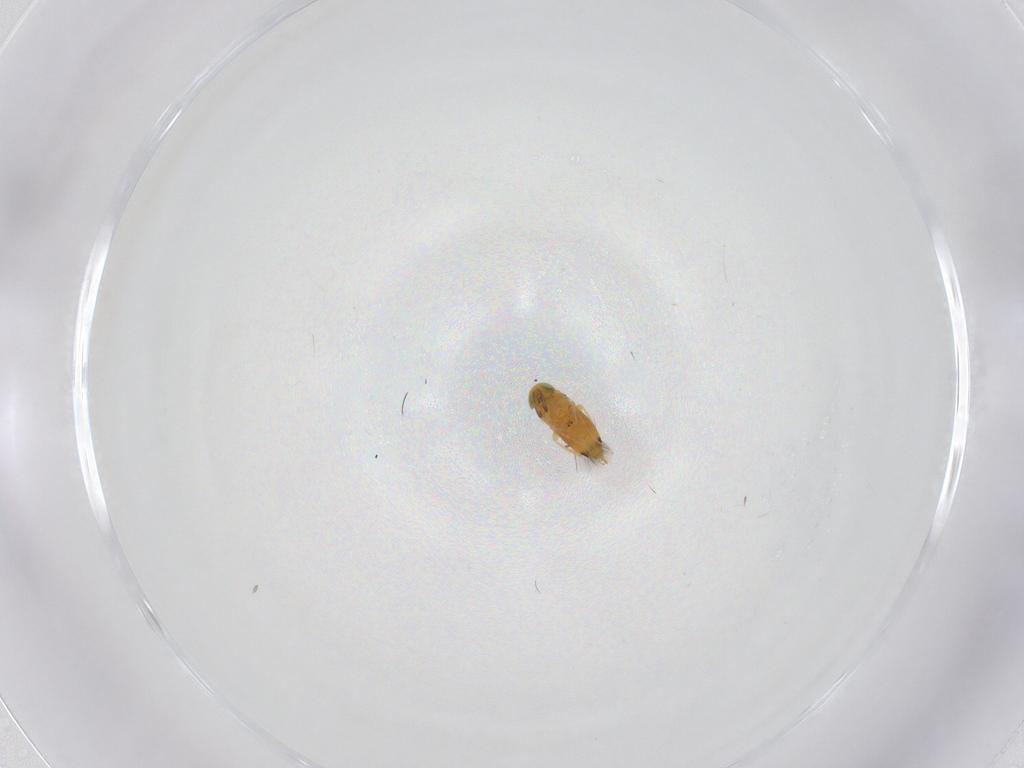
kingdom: Animalia
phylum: Arthropoda
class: Insecta
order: Hymenoptera
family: Signiphoridae
